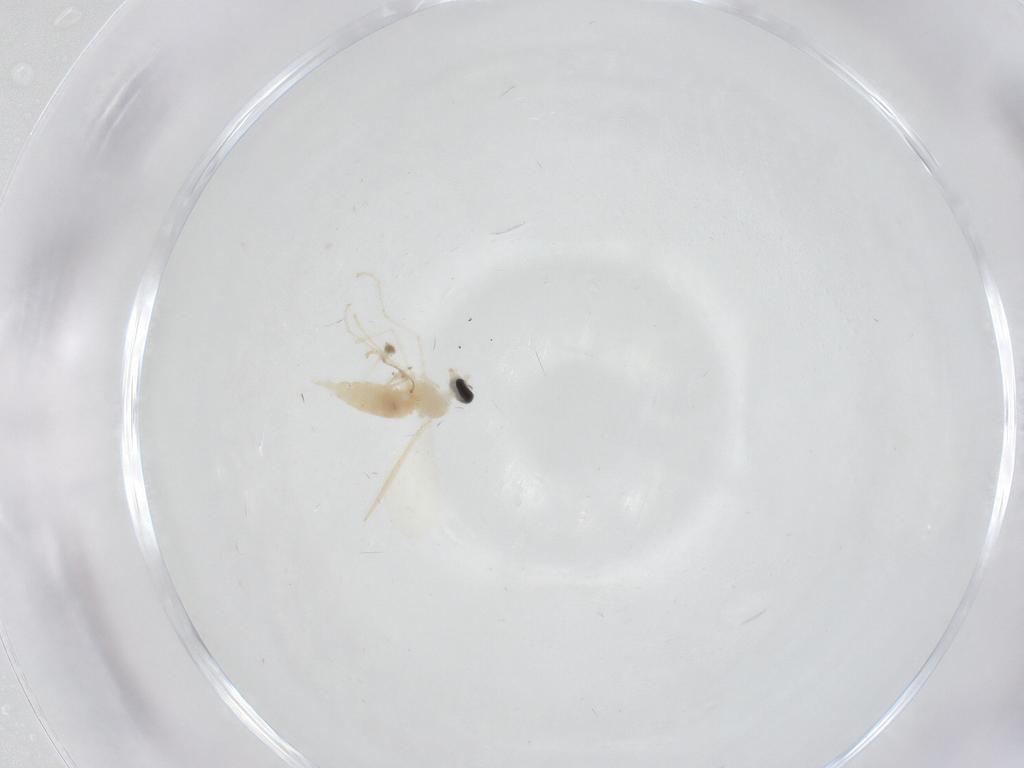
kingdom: Animalia
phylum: Arthropoda
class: Insecta
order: Diptera
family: Cecidomyiidae
